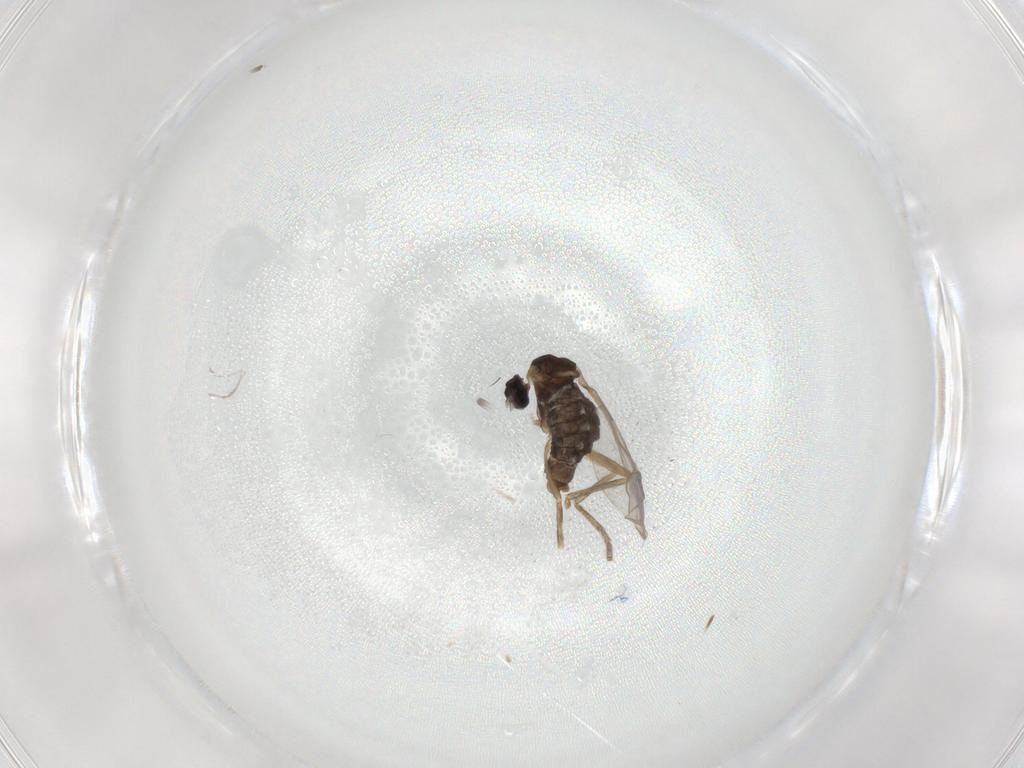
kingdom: Animalia
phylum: Arthropoda
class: Insecta
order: Diptera
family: Cecidomyiidae
